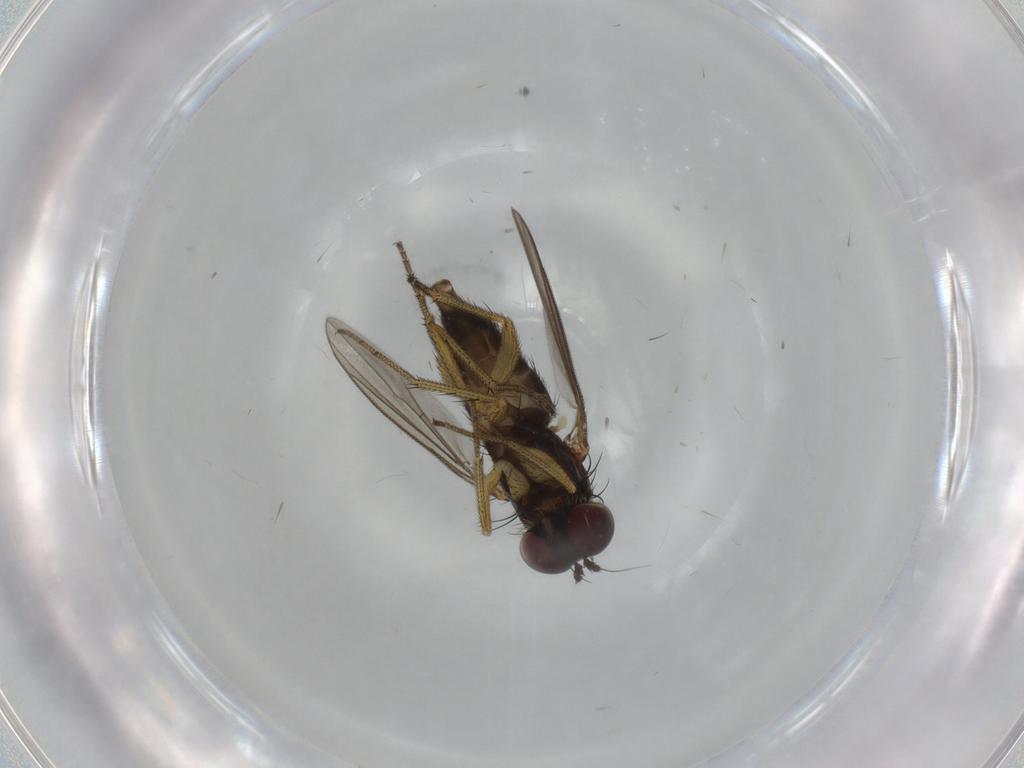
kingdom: Animalia
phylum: Arthropoda
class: Insecta
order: Diptera
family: Dolichopodidae
